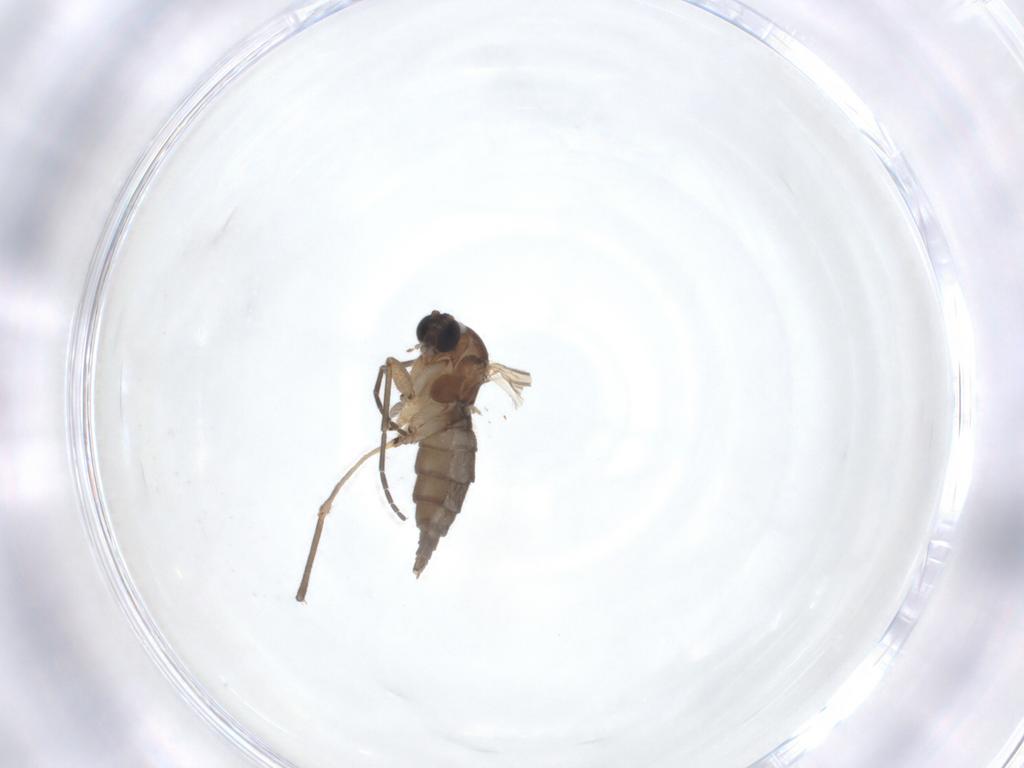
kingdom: Animalia
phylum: Arthropoda
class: Insecta
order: Diptera
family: Sciaridae
